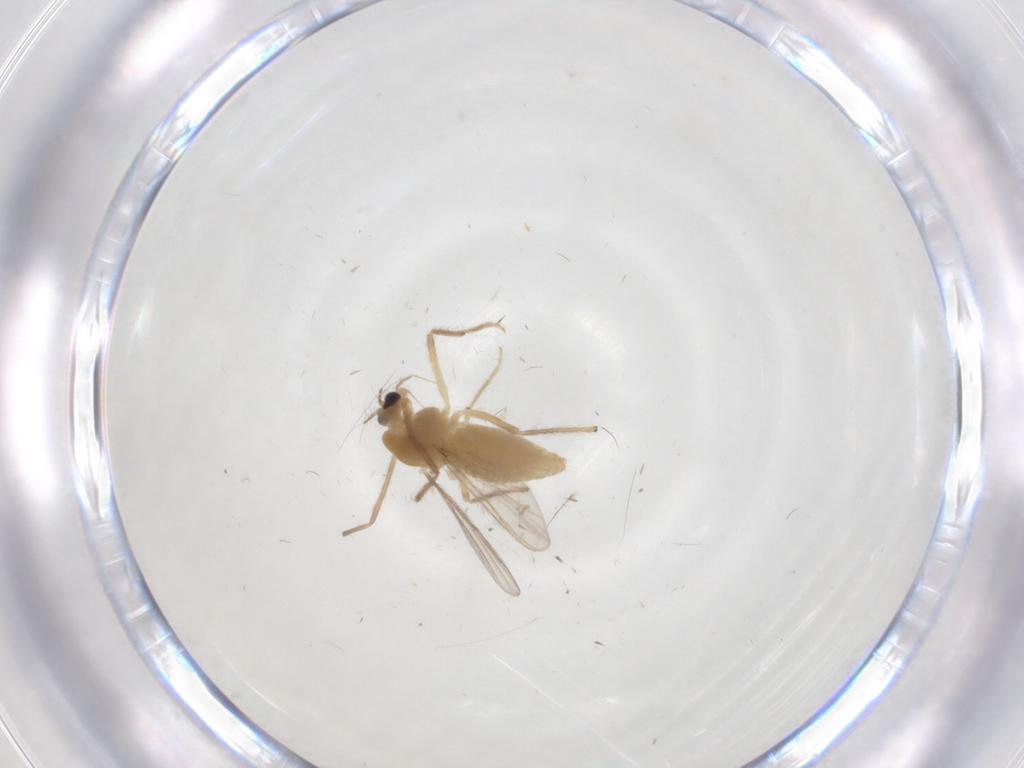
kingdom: Animalia
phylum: Arthropoda
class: Insecta
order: Diptera
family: Chironomidae
